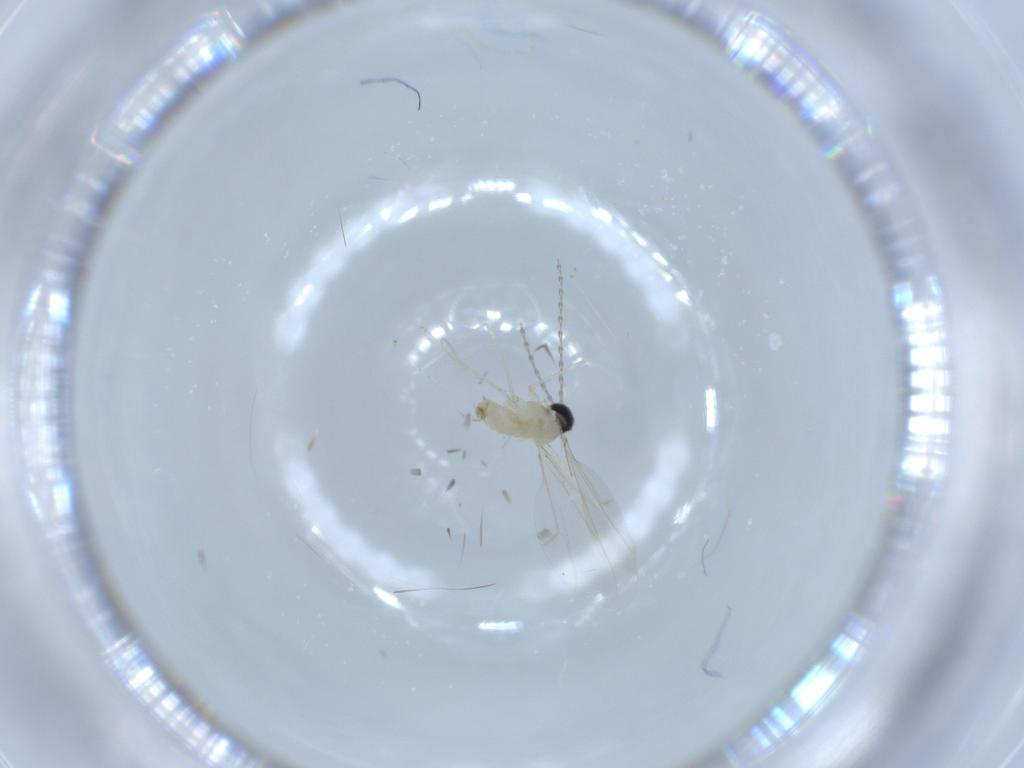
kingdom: Animalia
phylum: Arthropoda
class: Insecta
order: Diptera
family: Cecidomyiidae
